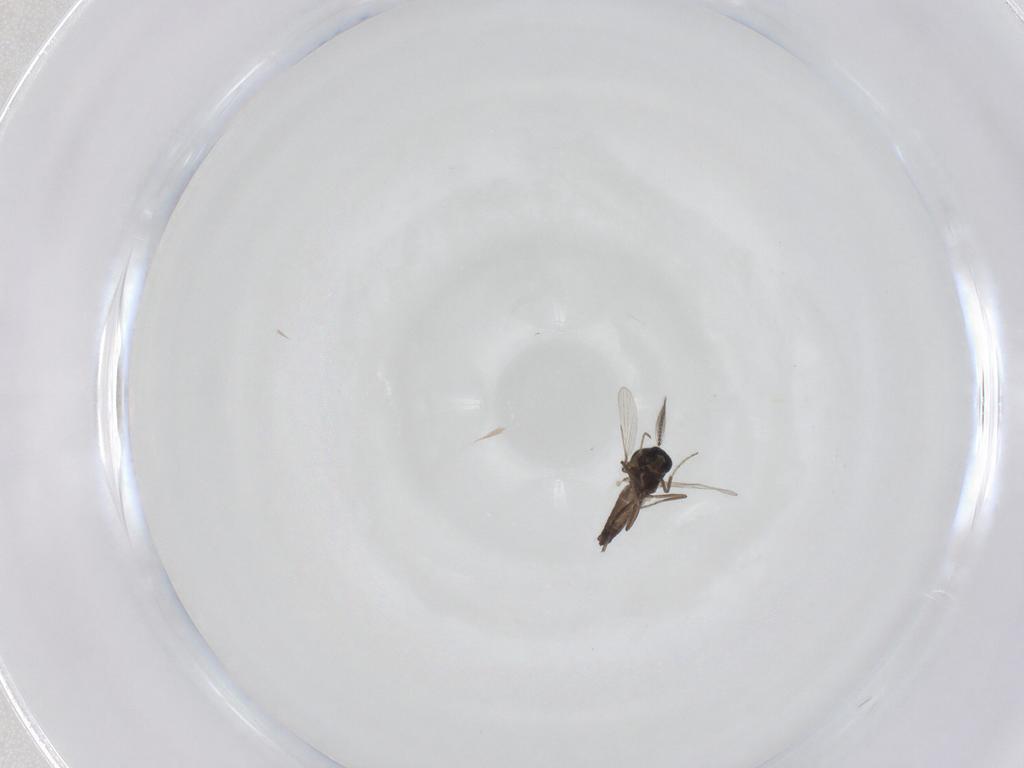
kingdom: Animalia
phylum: Arthropoda
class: Insecta
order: Diptera
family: Ceratopogonidae
